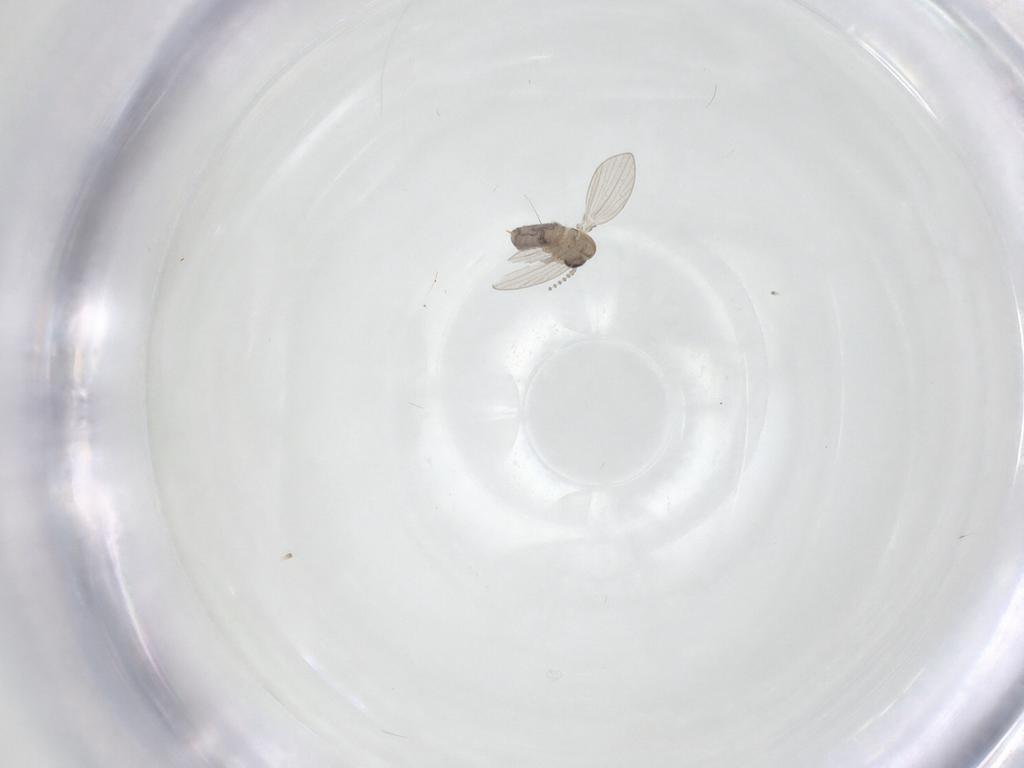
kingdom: Animalia
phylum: Arthropoda
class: Insecta
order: Diptera
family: Psychodidae
